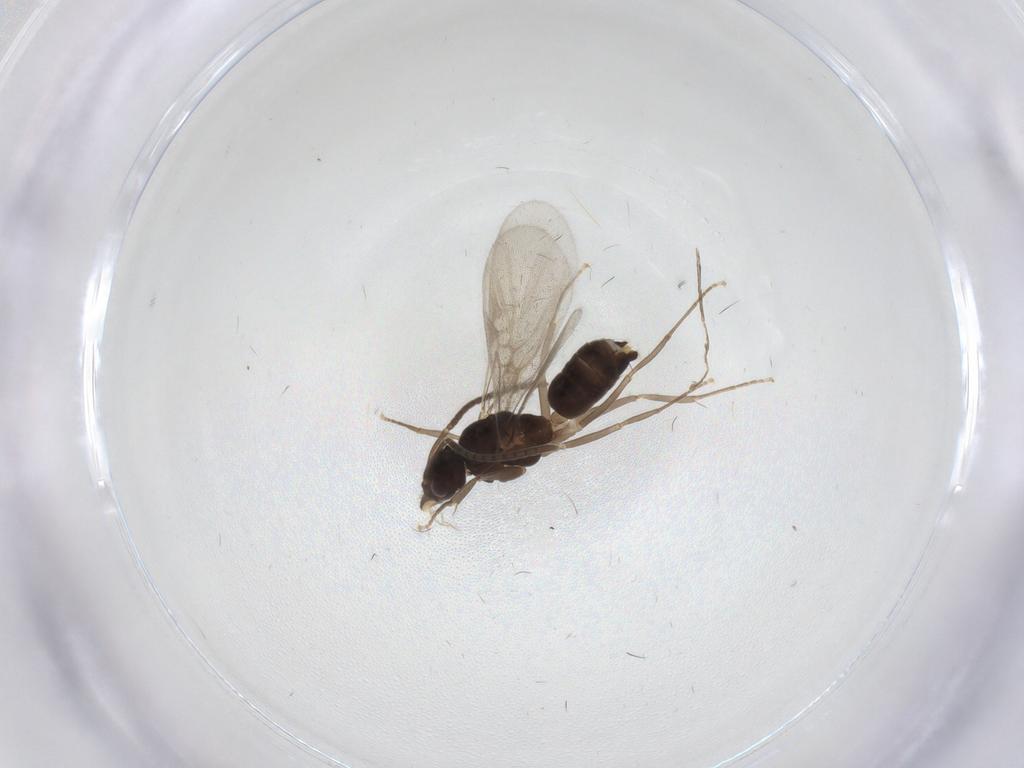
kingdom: Animalia
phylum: Arthropoda
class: Insecta
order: Hymenoptera
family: Formicidae
